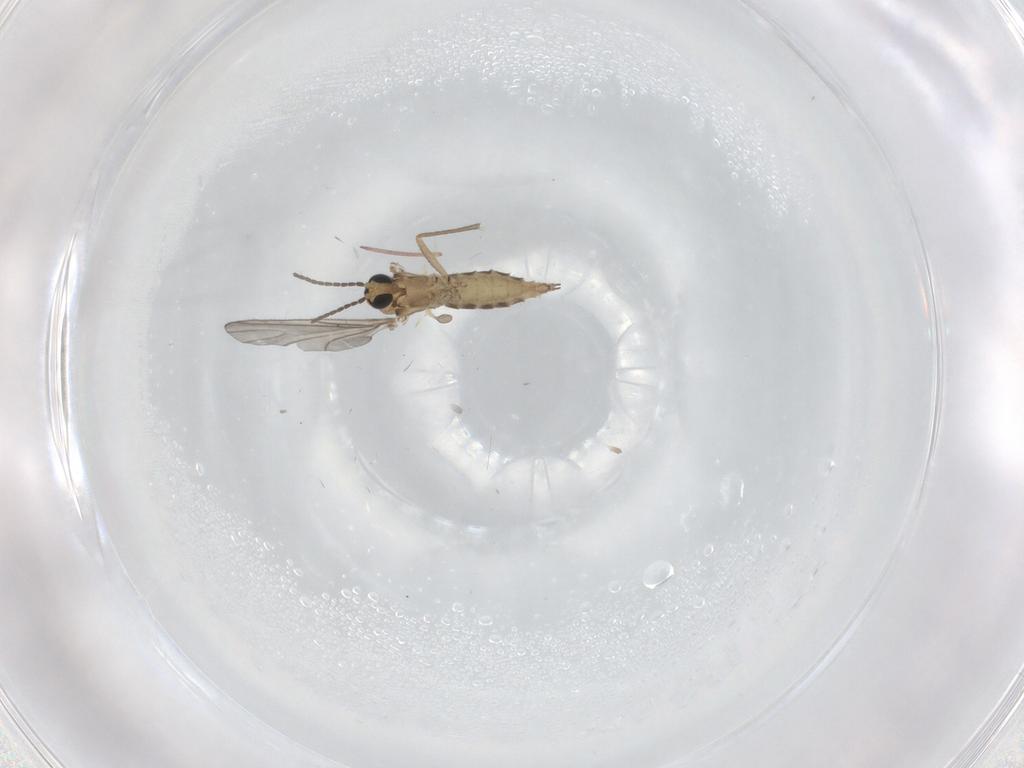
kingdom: Animalia
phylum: Arthropoda
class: Insecta
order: Diptera
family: Sciaridae
